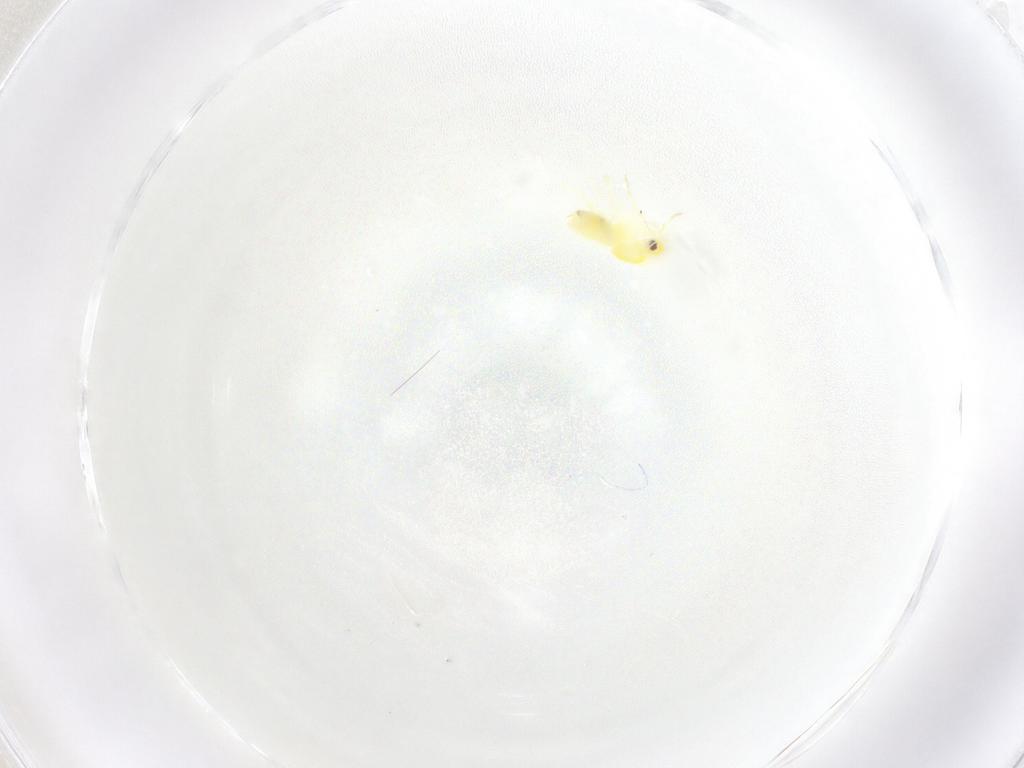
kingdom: Animalia
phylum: Arthropoda
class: Insecta
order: Hemiptera
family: Aleyrodidae
